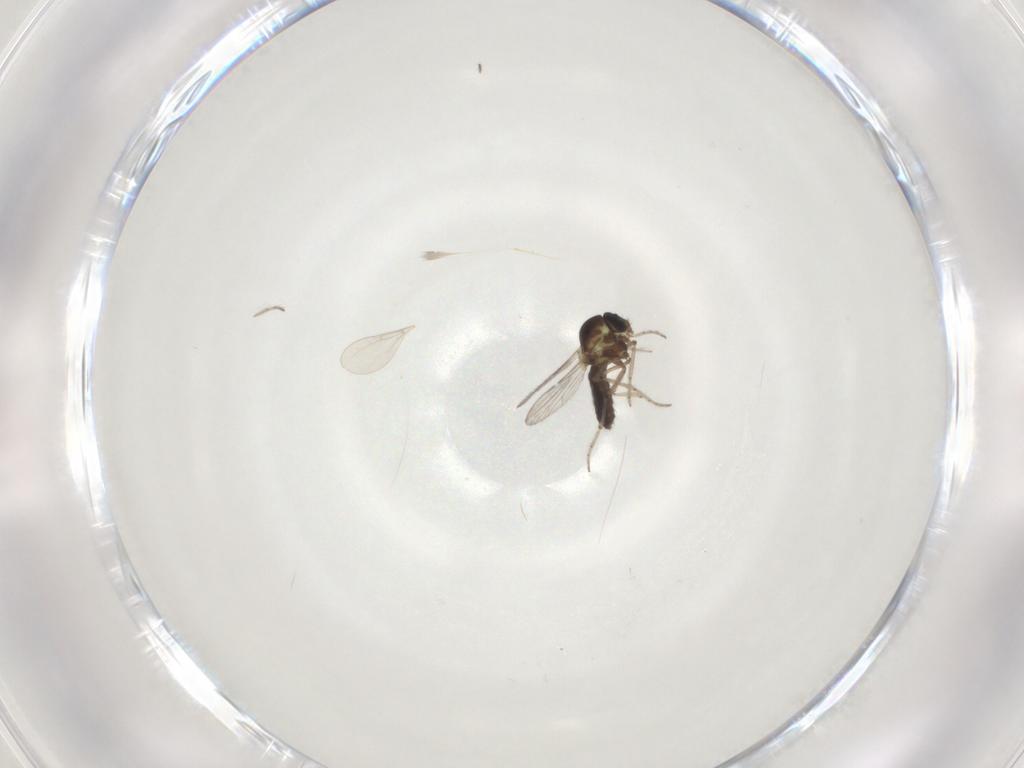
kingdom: Animalia
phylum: Arthropoda
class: Insecta
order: Diptera
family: Ceratopogonidae
